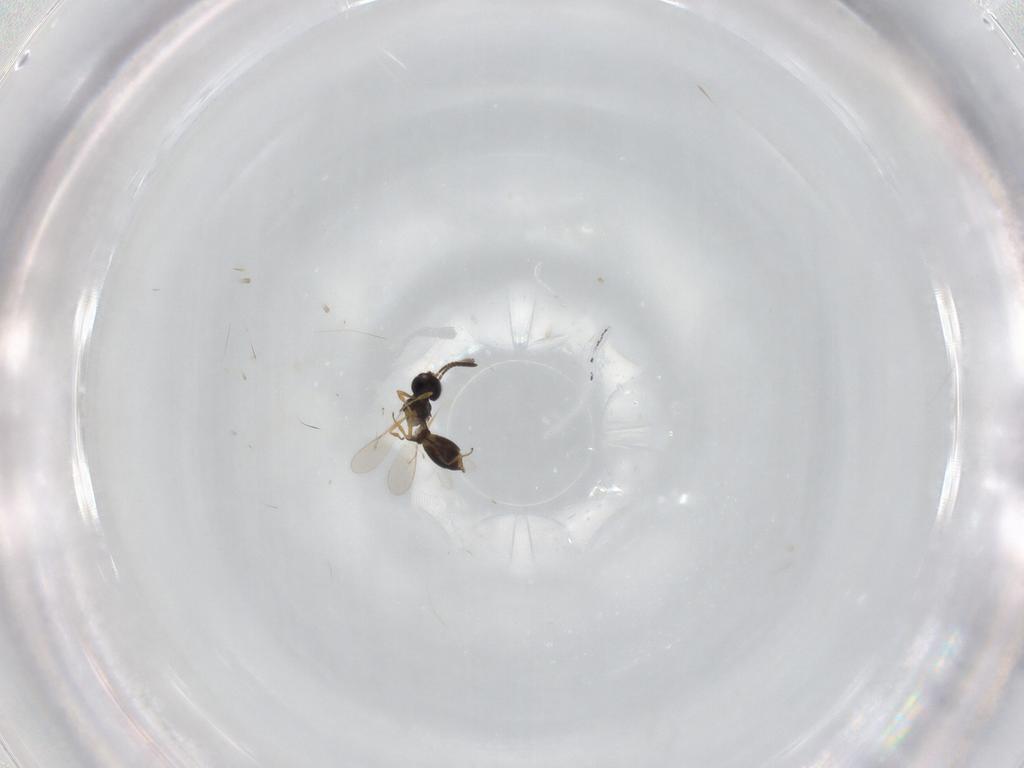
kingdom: Animalia
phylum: Arthropoda
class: Insecta
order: Hymenoptera
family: Scelionidae
